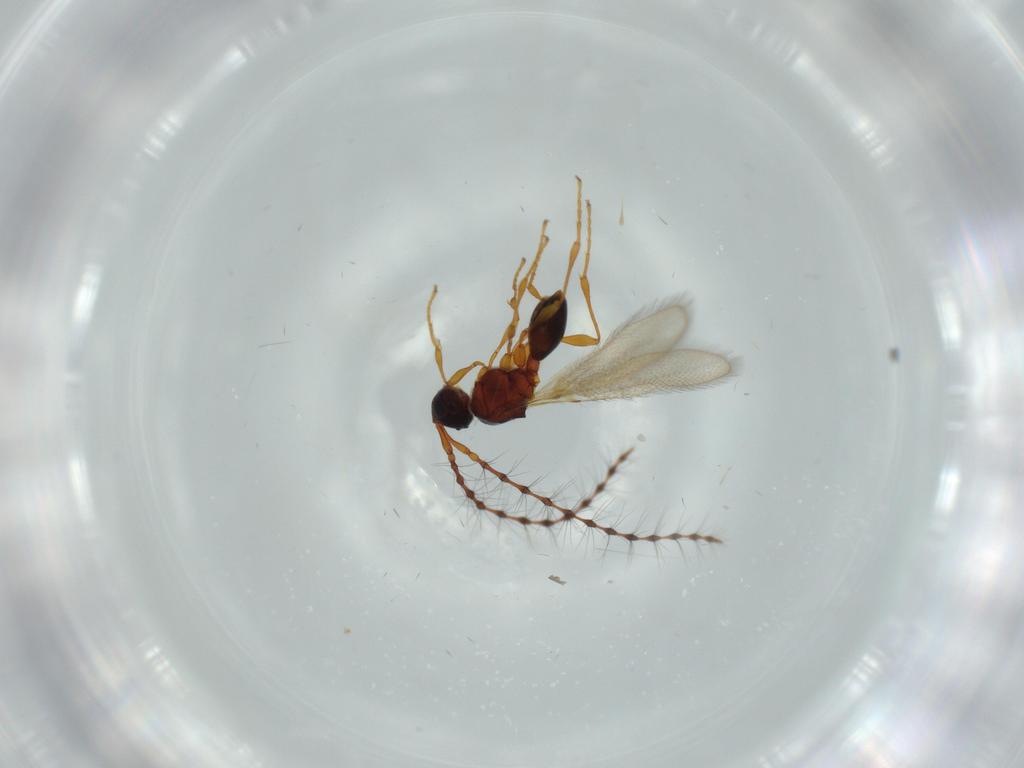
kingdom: Animalia
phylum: Arthropoda
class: Insecta
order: Hymenoptera
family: Diapriidae
